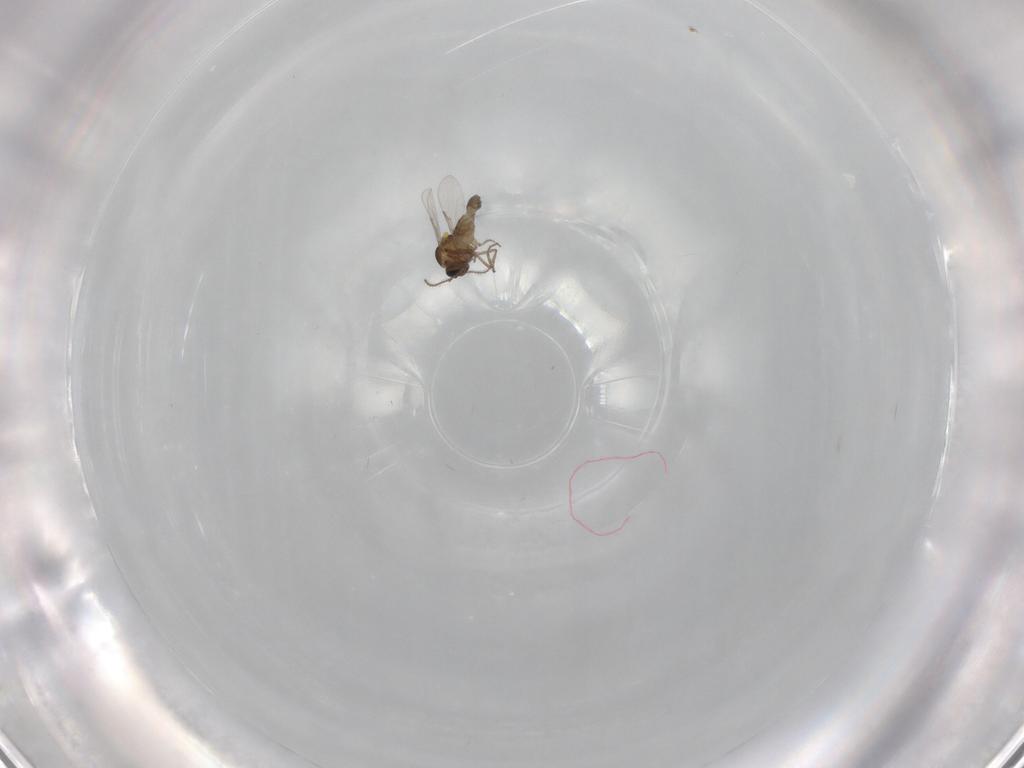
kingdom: Animalia
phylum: Arthropoda
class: Insecta
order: Diptera
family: Ceratopogonidae
